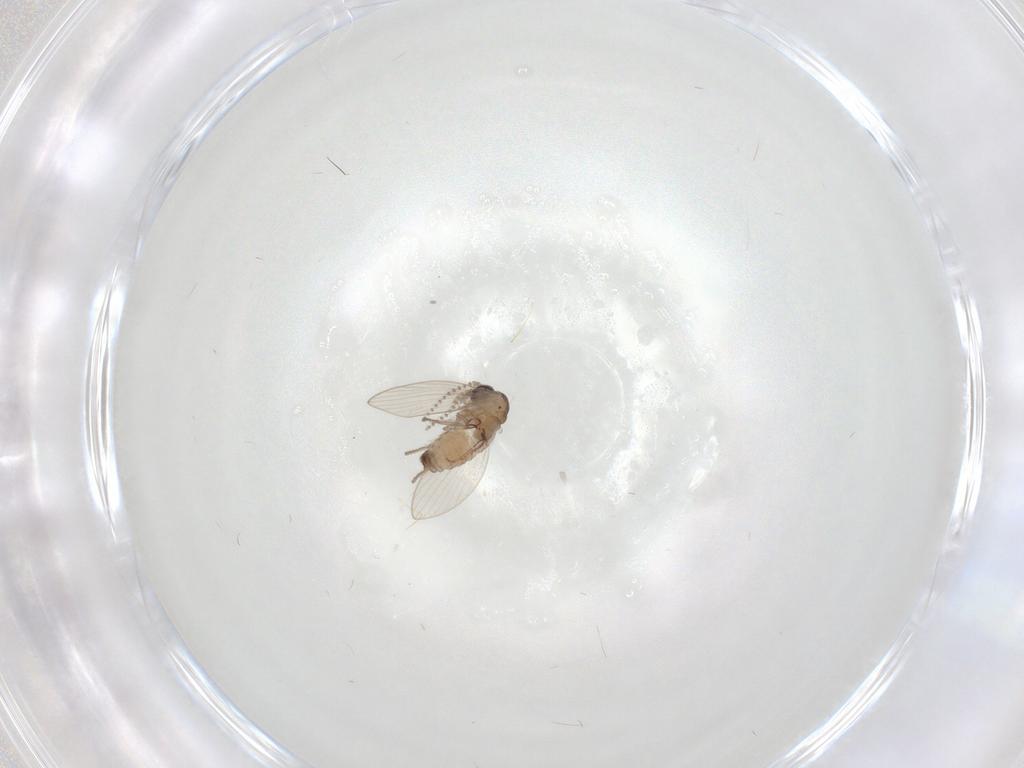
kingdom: Animalia
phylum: Arthropoda
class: Insecta
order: Diptera
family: Psychodidae
